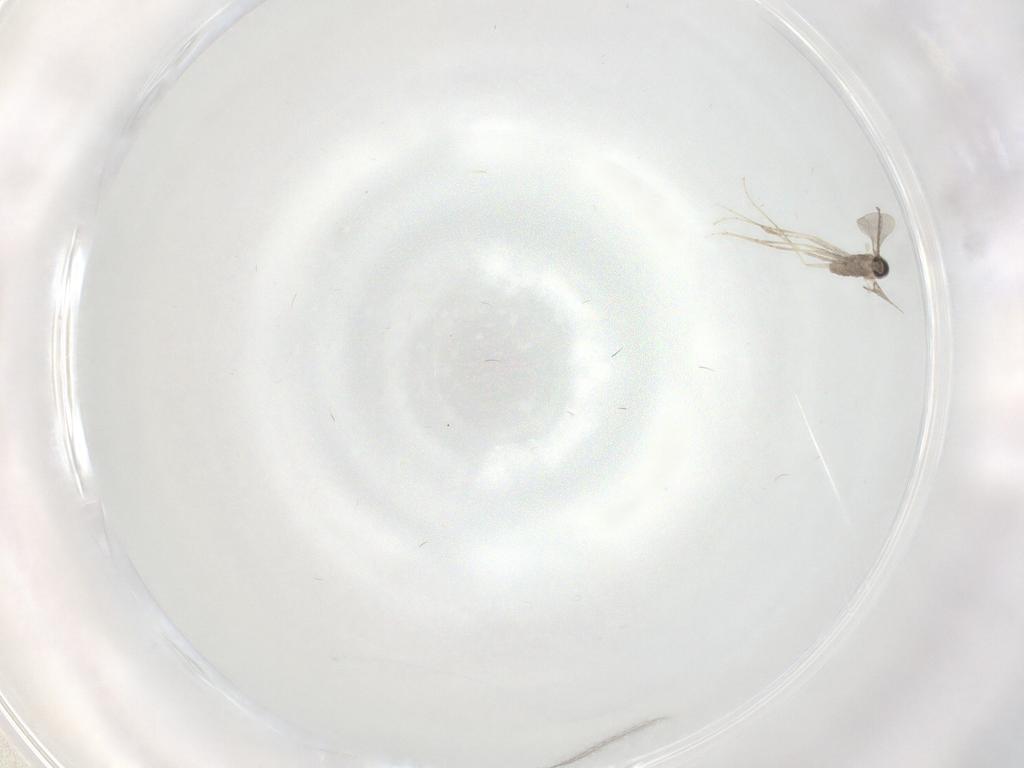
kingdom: Animalia
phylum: Arthropoda
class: Insecta
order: Diptera
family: Cecidomyiidae
